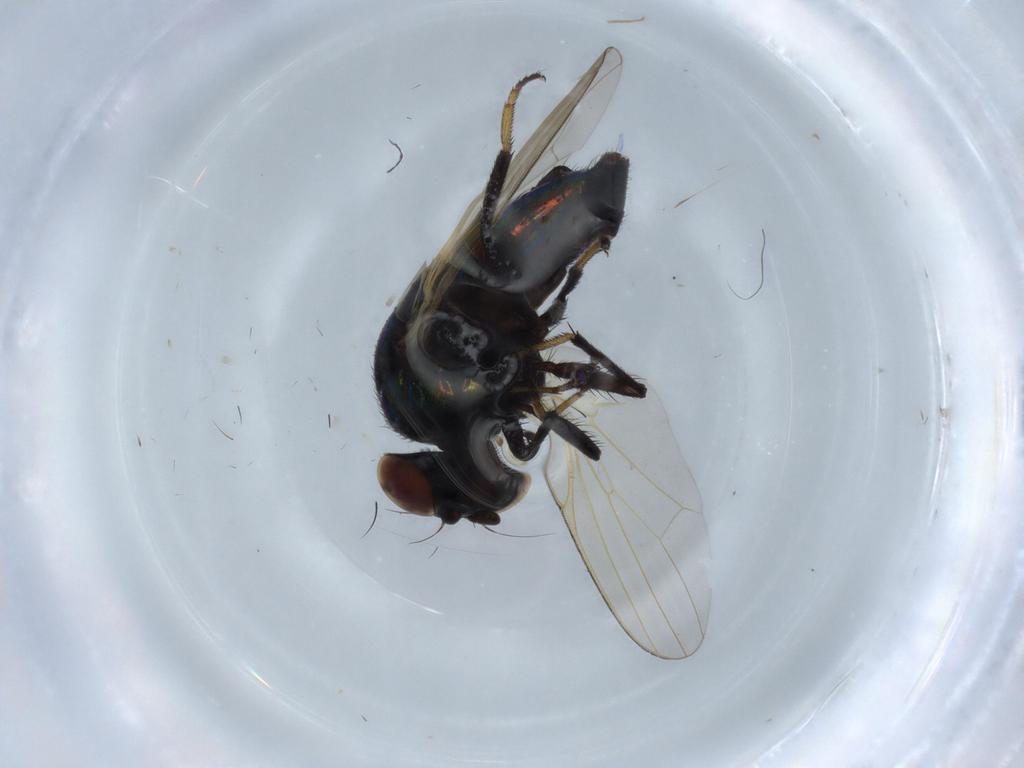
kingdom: Animalia
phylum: Arthropoda
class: Insecta
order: Diptera
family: Lonchaeidae
